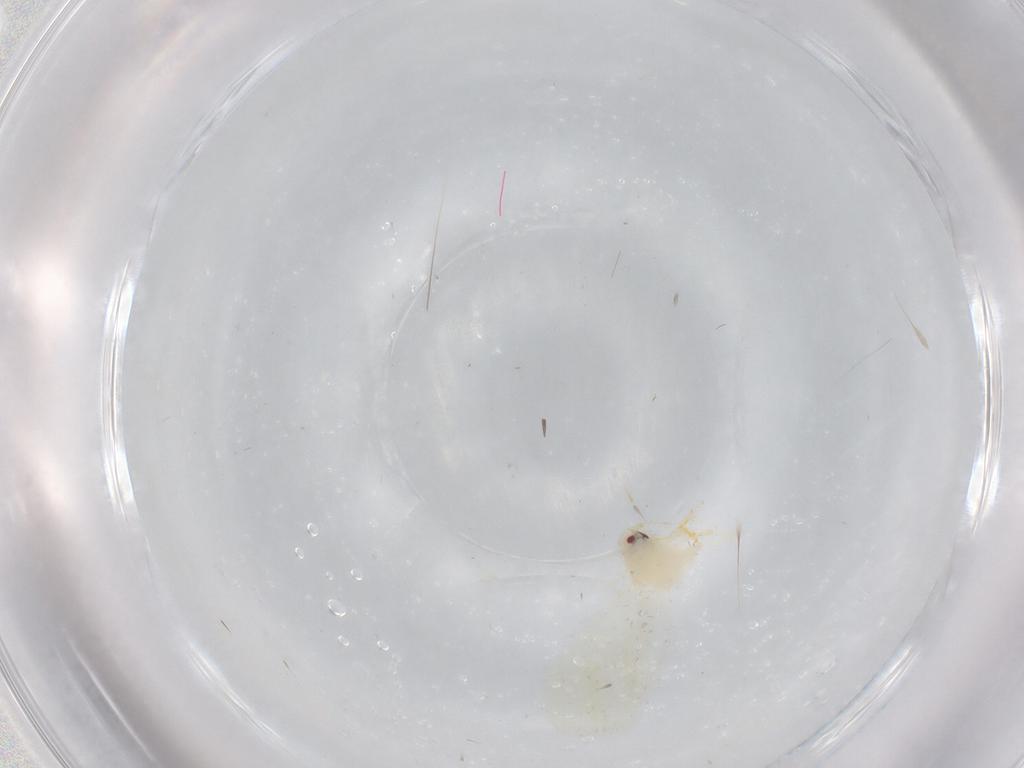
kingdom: Animalia
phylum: Arthropoda
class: Insecta
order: Hemiptera
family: Aleyrodidae
